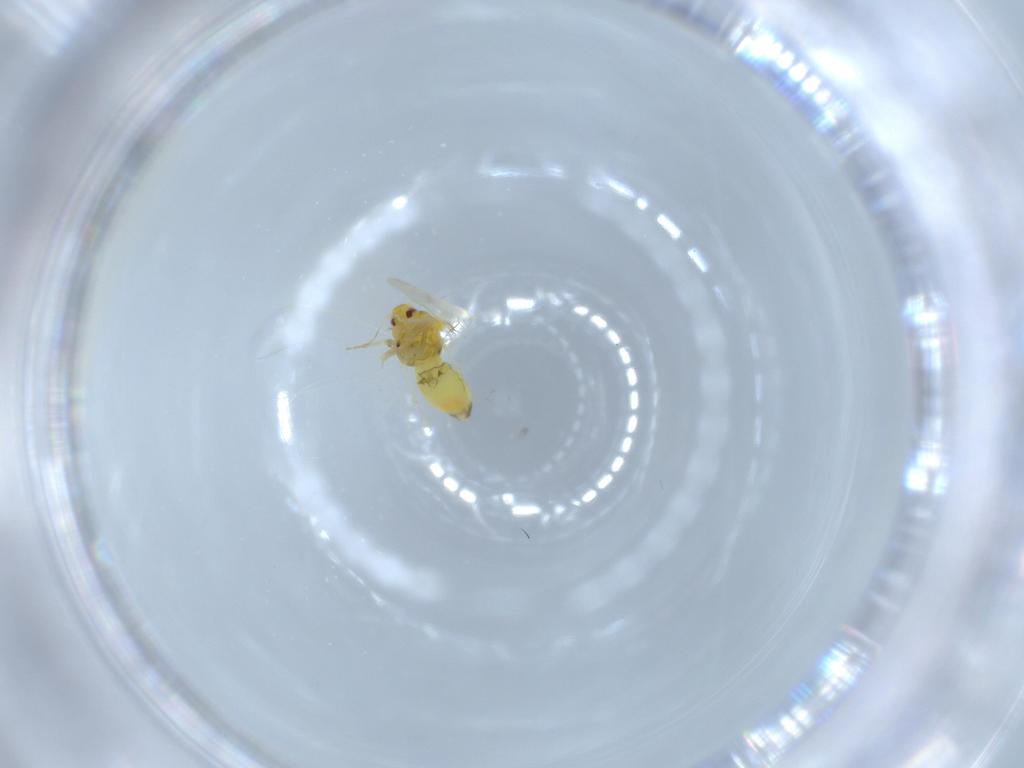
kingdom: Animalia
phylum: Arthropoda
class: Insecta
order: Hemiptera
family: Aleyrodidae
